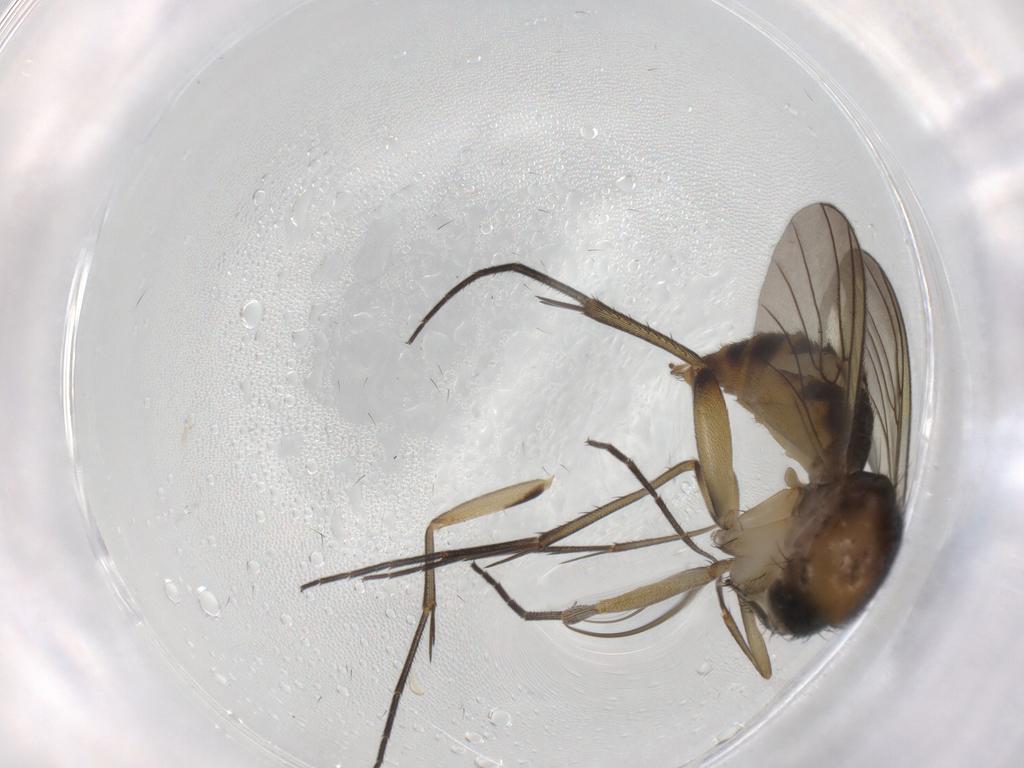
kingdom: Animalia
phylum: Arthropoda
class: Insecta
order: Diptera
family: Mycetophilidae
